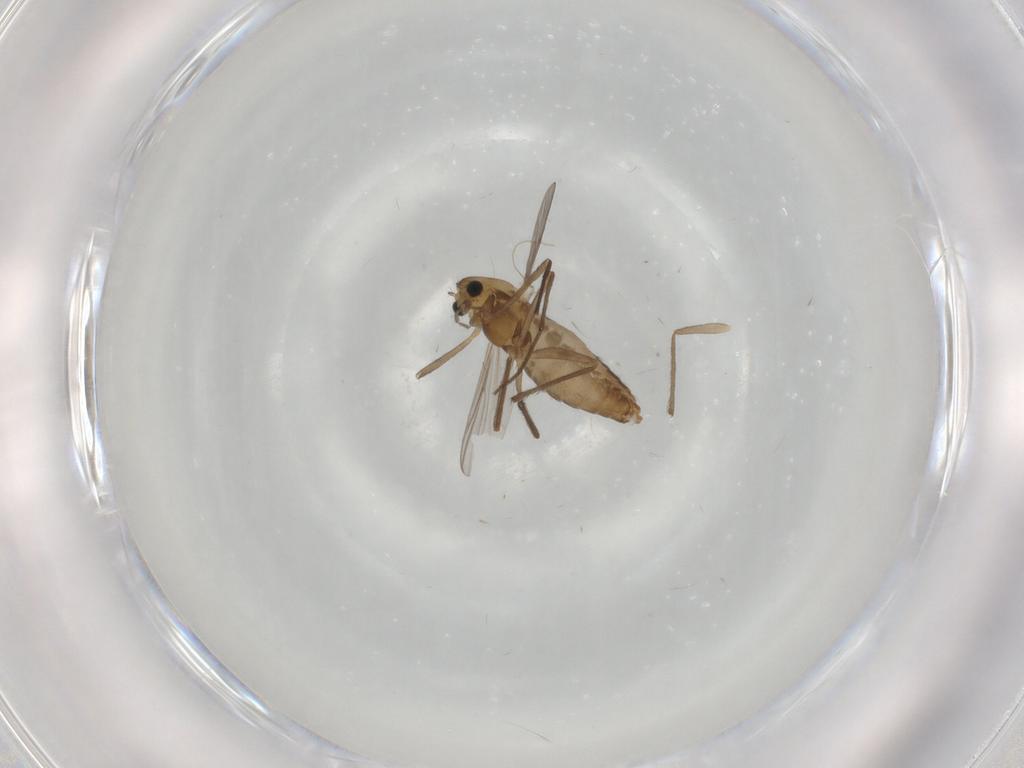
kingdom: Animalia
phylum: Arthropoda
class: Insecta
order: Diptera
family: Chironomidae
